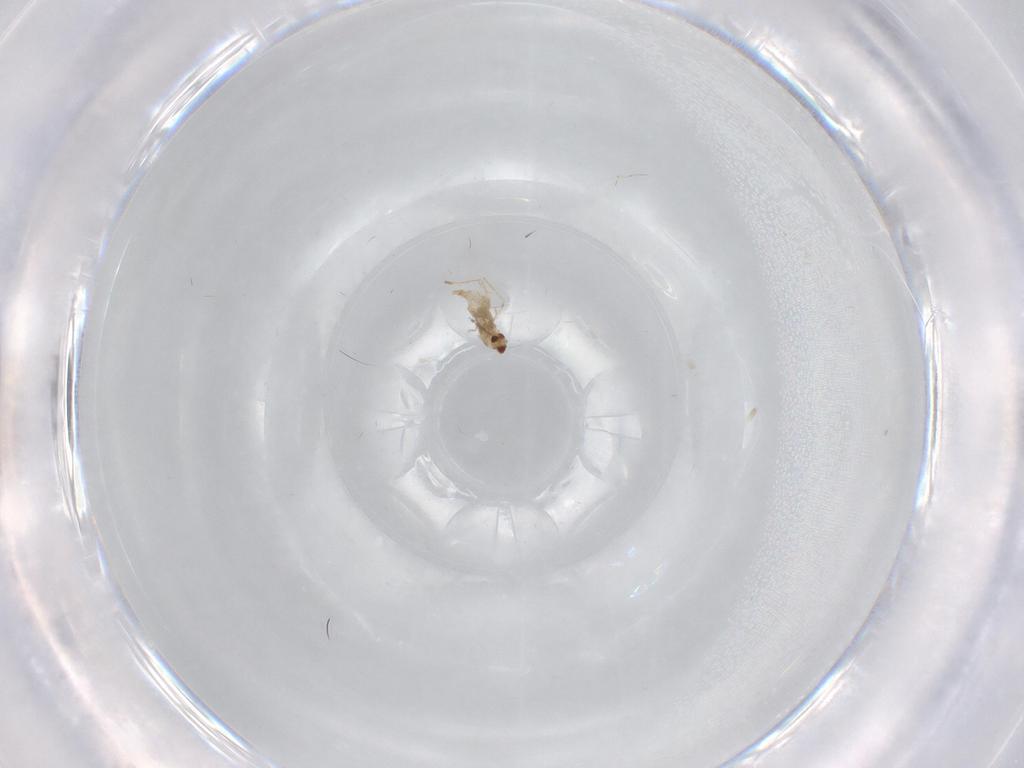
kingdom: Animalia
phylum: Arthropoda
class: Insecta
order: Diptera
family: Cecidomyiidae
